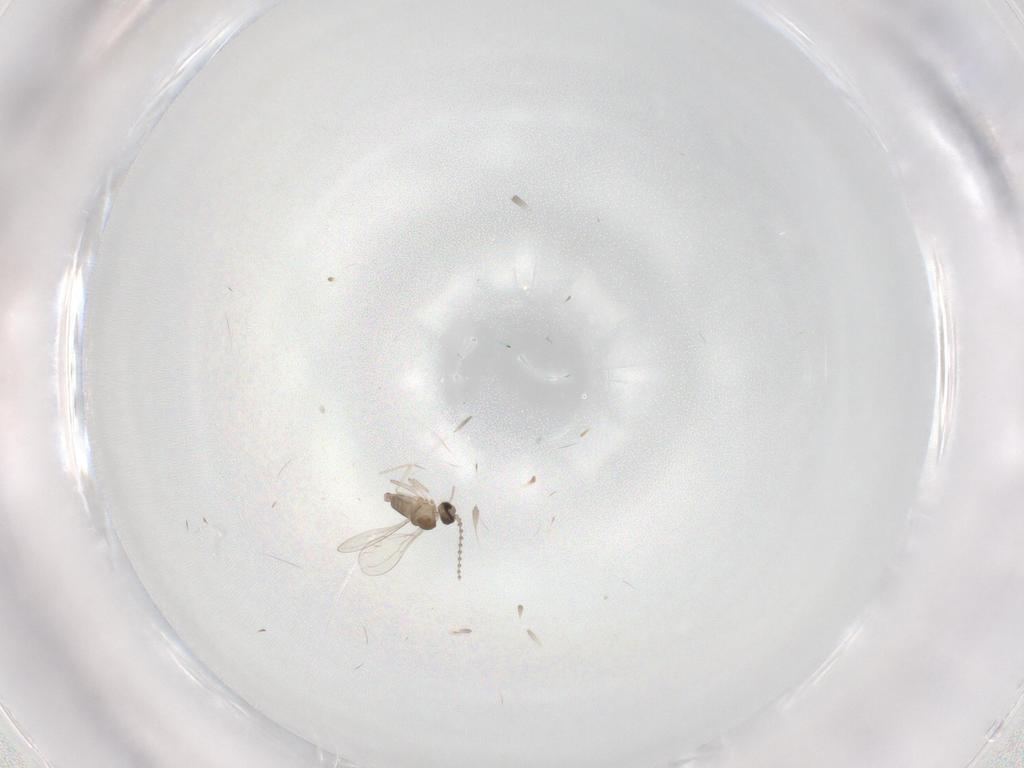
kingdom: Animalia
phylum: Arthropoda
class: Insecta
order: Diptera
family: Cecidomyiidae
